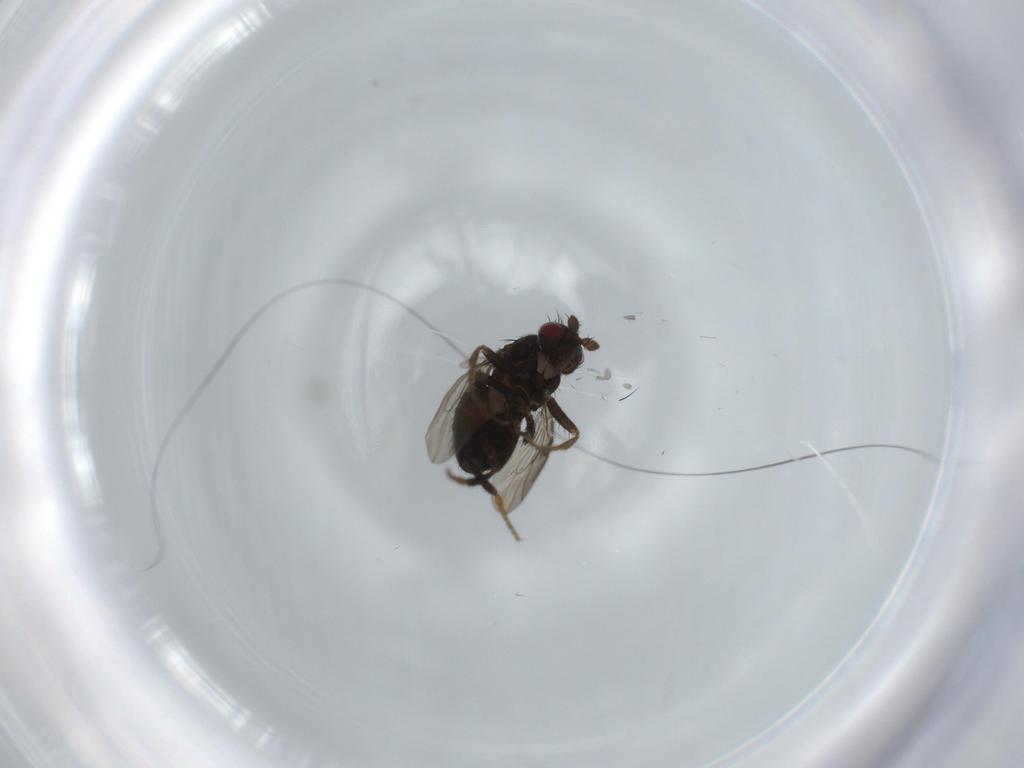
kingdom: Animalia
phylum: Arthropoda
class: Insecta
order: Diptera
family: Sphaeroceridae
